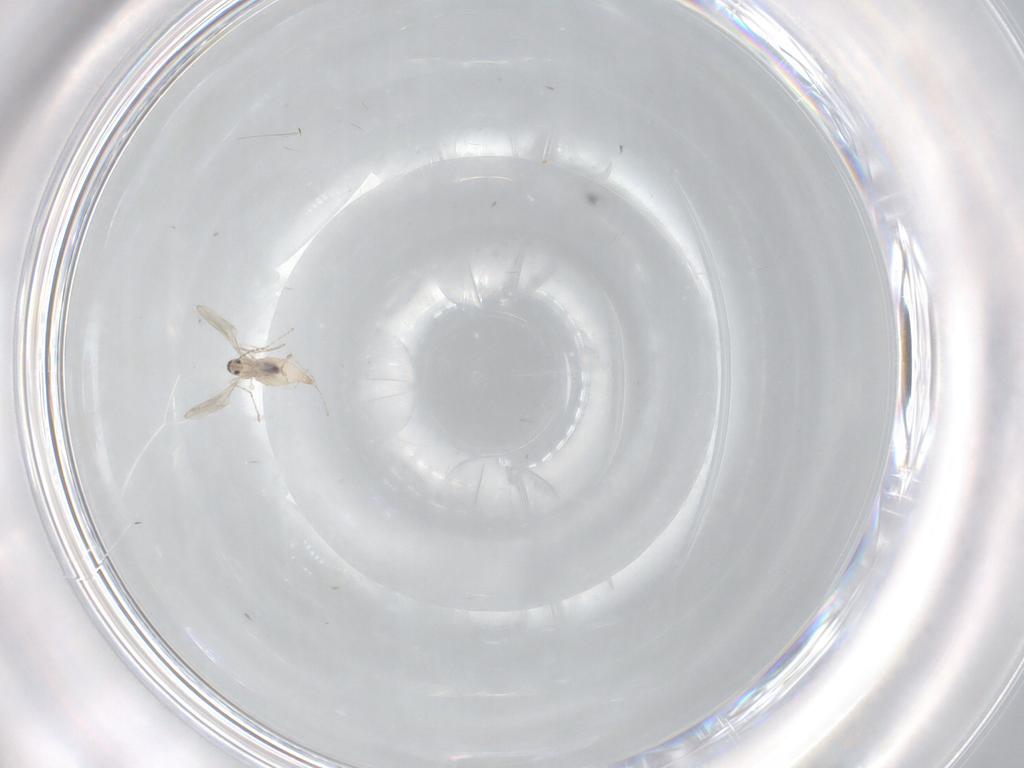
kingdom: Animalia
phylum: Arthropoda
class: Insecta
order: Diptera
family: Cecidomyiidae
